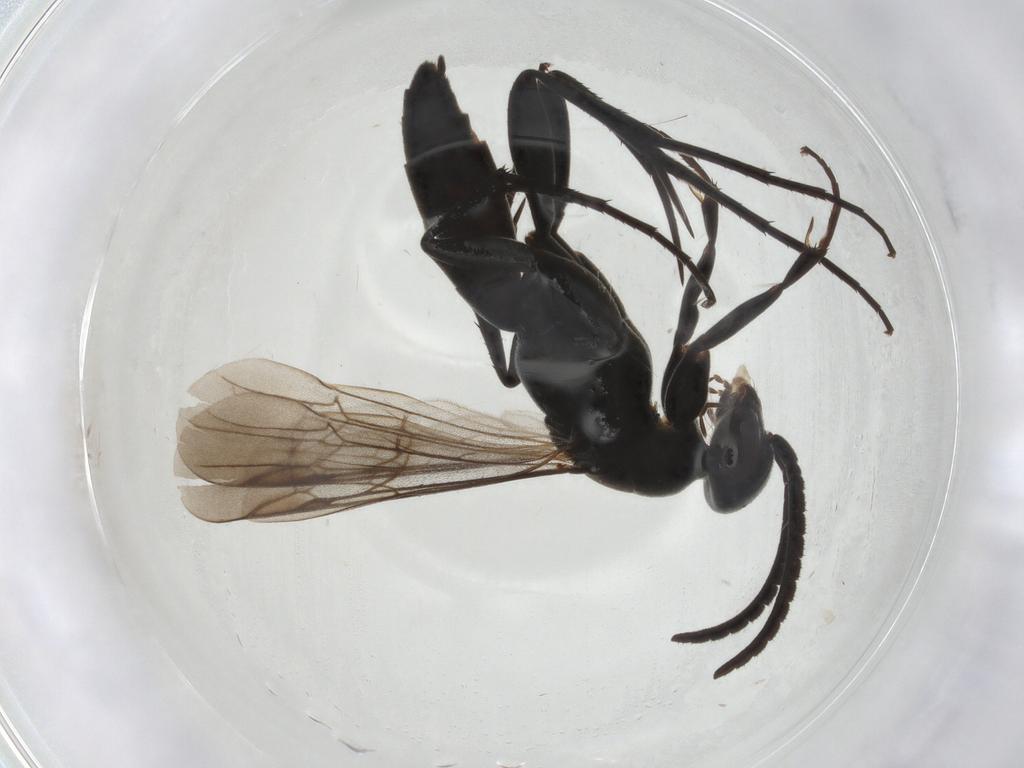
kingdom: Animalia
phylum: Arthropoda
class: Insecta
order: Hymenoptera
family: Pompilidae
